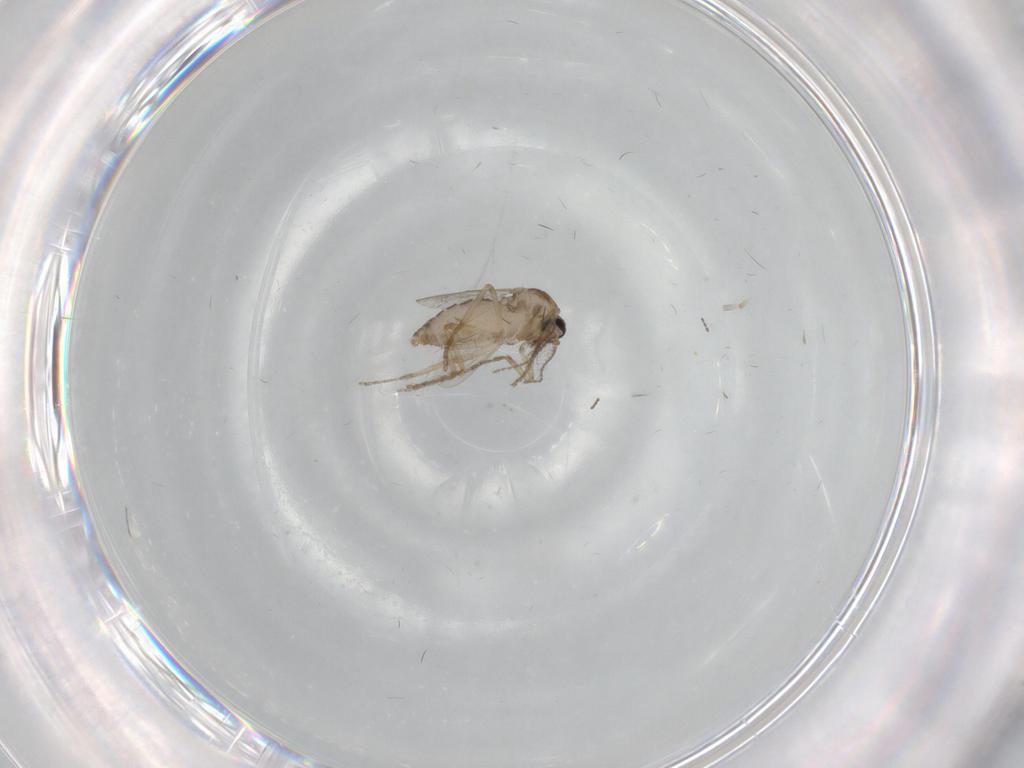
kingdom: Animalia
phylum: Arthropoda
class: Insecta
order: Diptera
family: Ceratopogonidae
